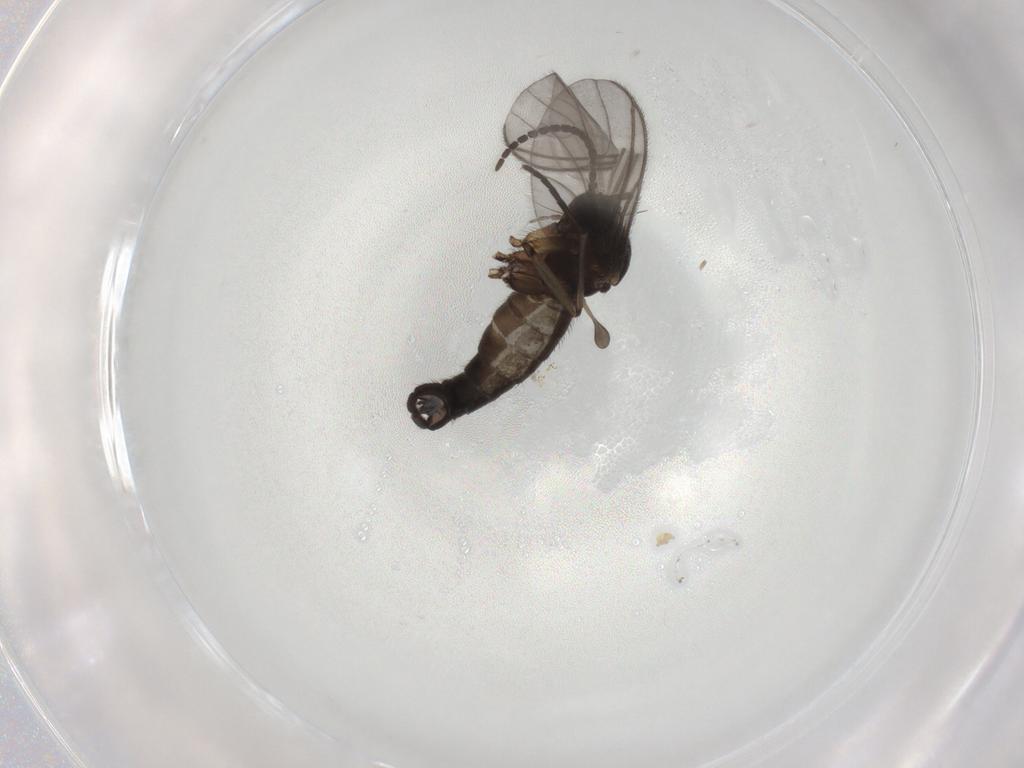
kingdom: Animalia
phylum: Arthropoda
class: Insecta
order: Diptera
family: Sciaridae
